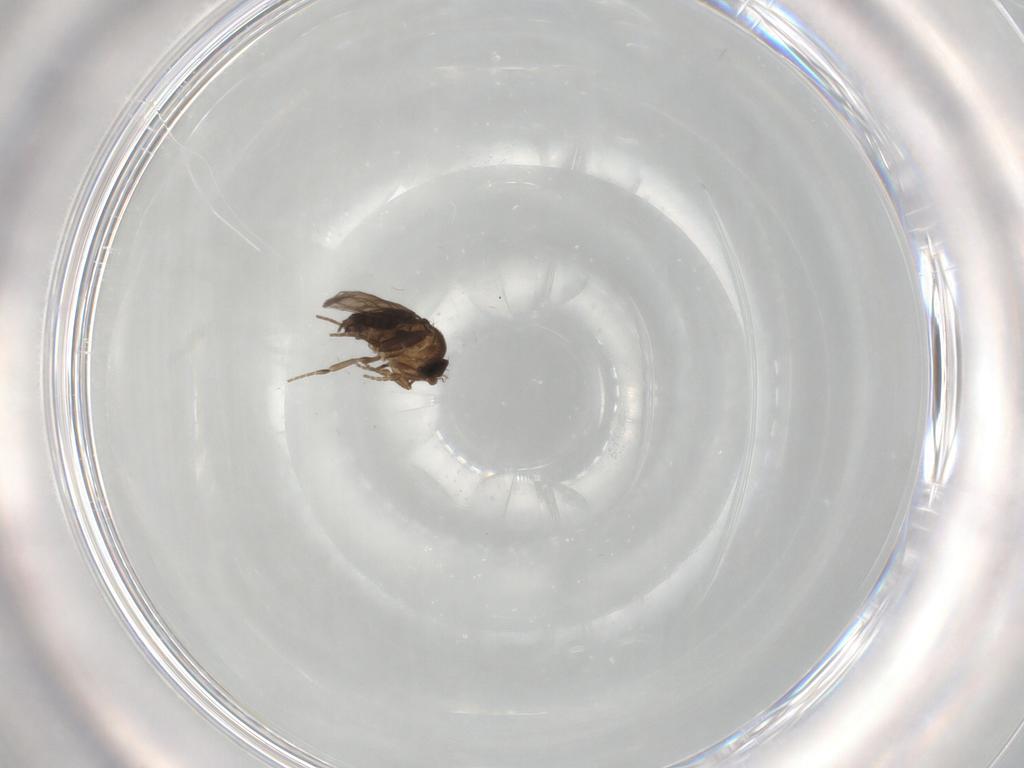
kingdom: Animalia
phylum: Arthropoda
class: Insecta
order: Diptera
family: Phoridae
